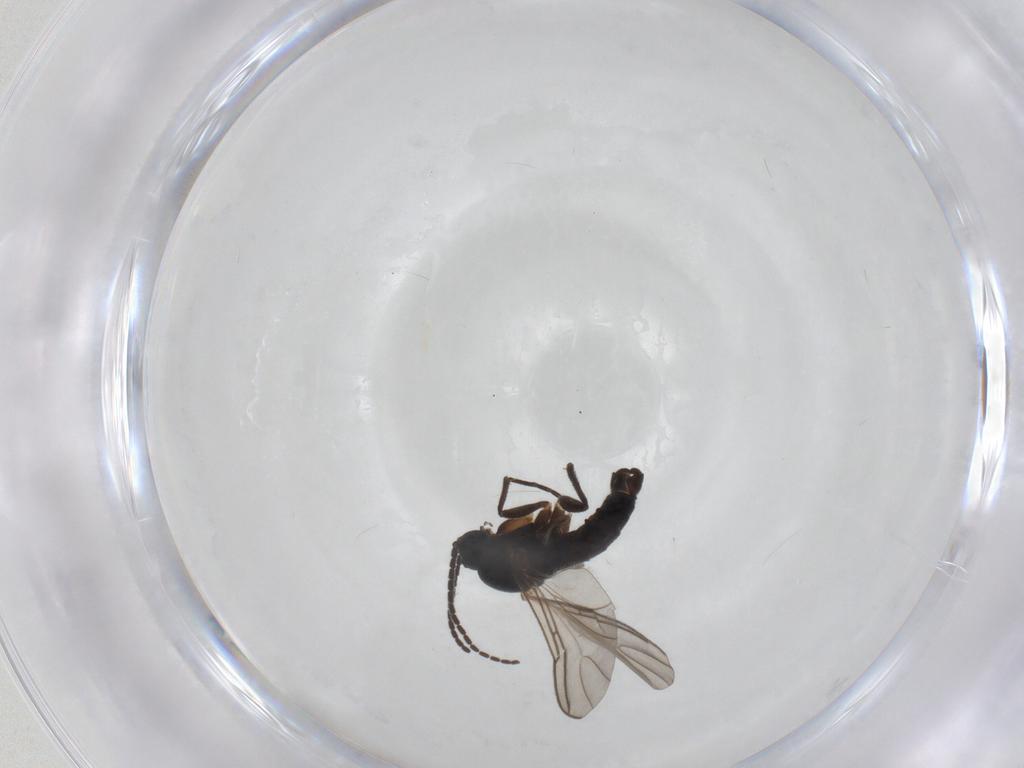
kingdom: Animalia
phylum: Arthropoda
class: Insecta
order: Diptera
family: Sciaridae
